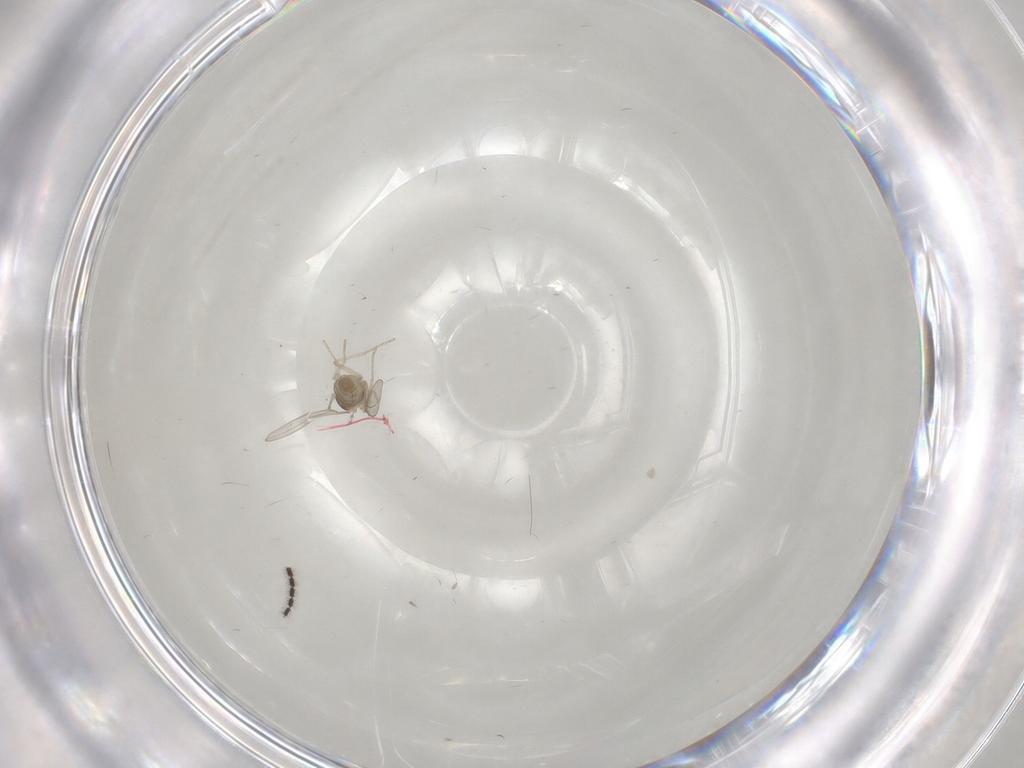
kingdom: Animalia
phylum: Arthropoda
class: Insecta
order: Diptera
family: Cecidomyiidae
